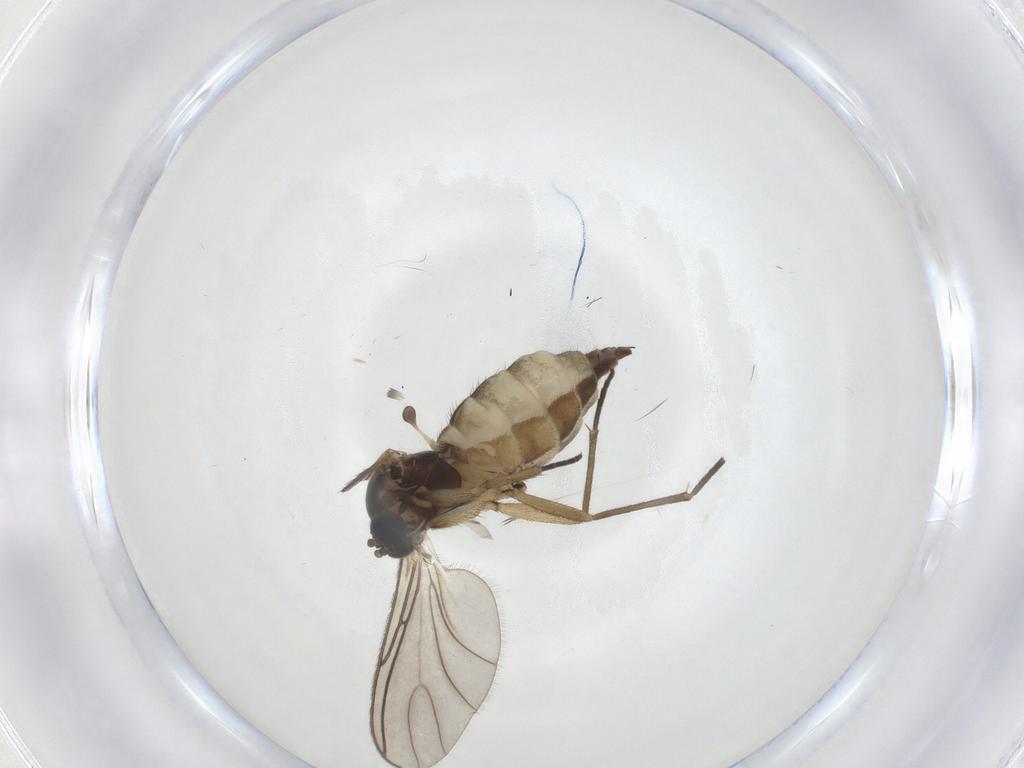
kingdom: Animalia
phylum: Arthropoda
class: Insecta
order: Diptera
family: Sciaridae
